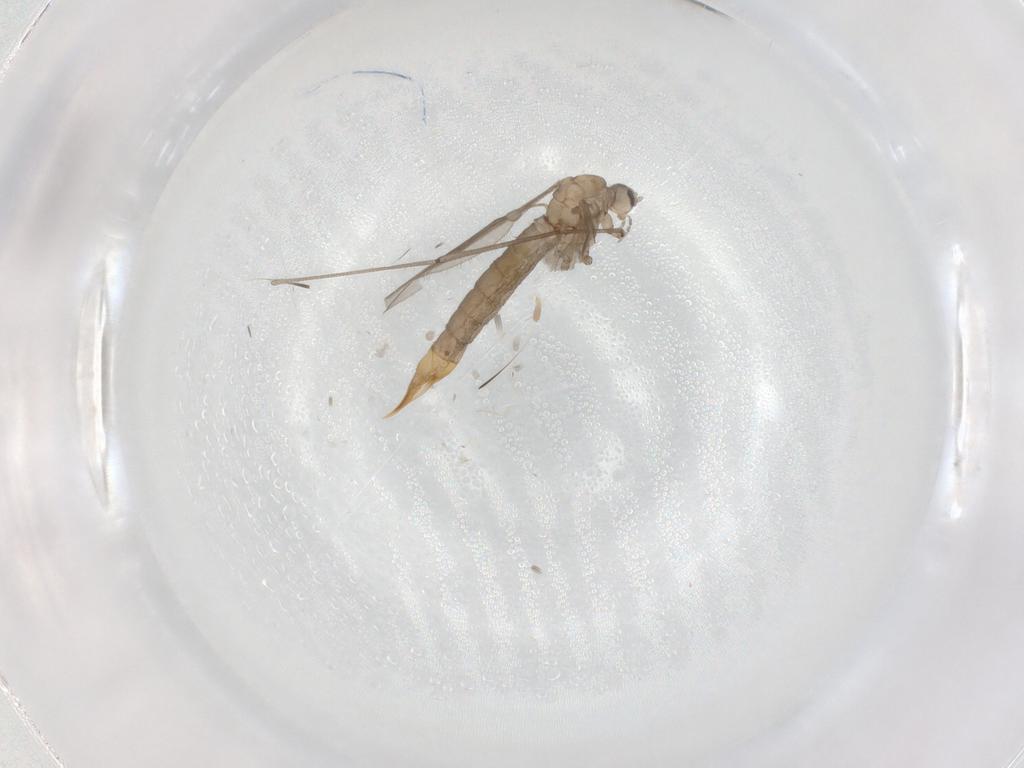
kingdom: Animalia
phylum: Arthropoda
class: Insecta
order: Diptera
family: Limoniidae
